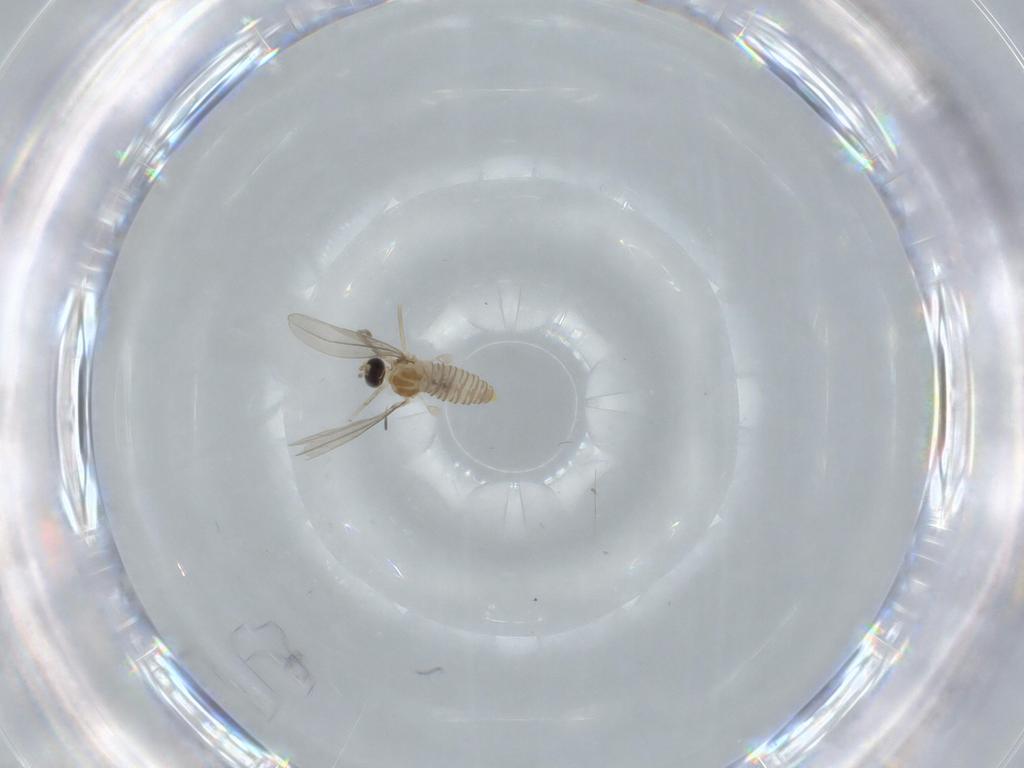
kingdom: Animalia
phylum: Arthropoda
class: Insecta
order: Diptera
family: Cecidomyiidae
